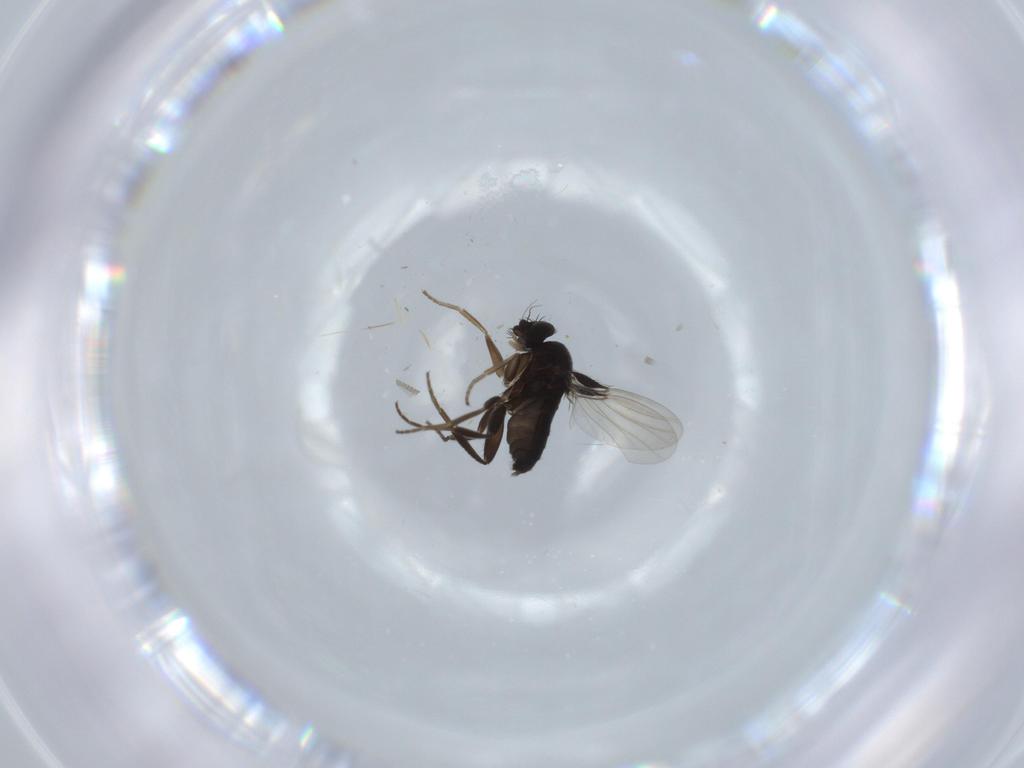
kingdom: Animalia
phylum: Arthropoda
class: Insecta
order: Diptera
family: Phoridae
